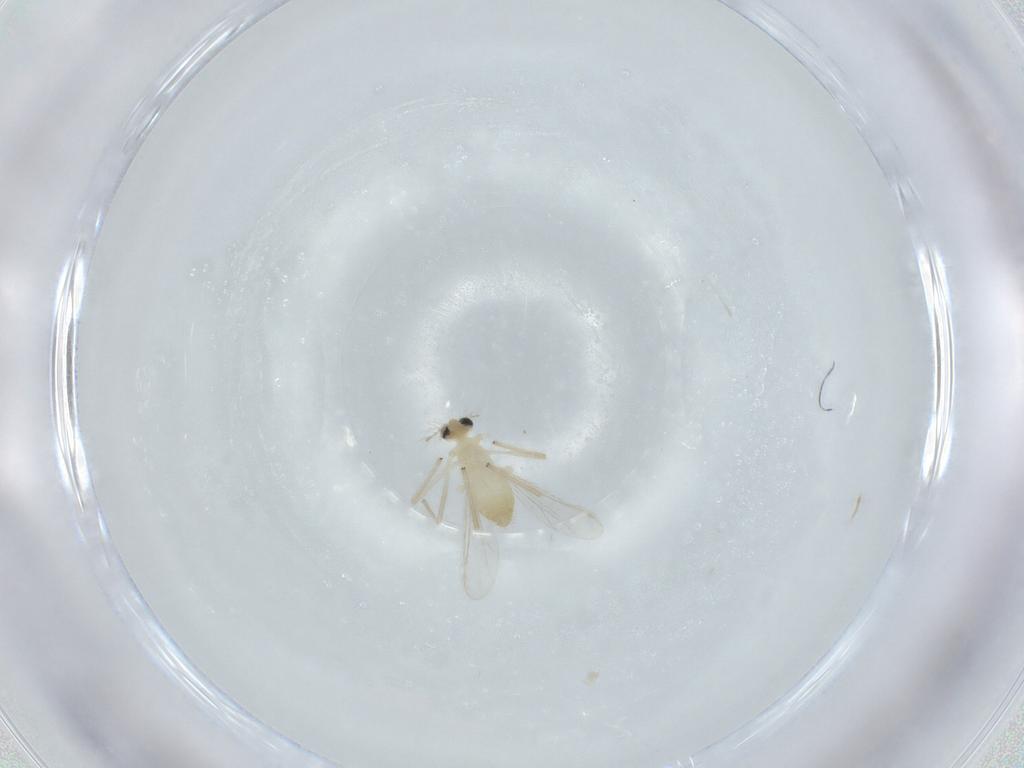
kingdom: Animalia
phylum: Arthropoda
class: Insecta
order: Diptera
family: Chironomidae
